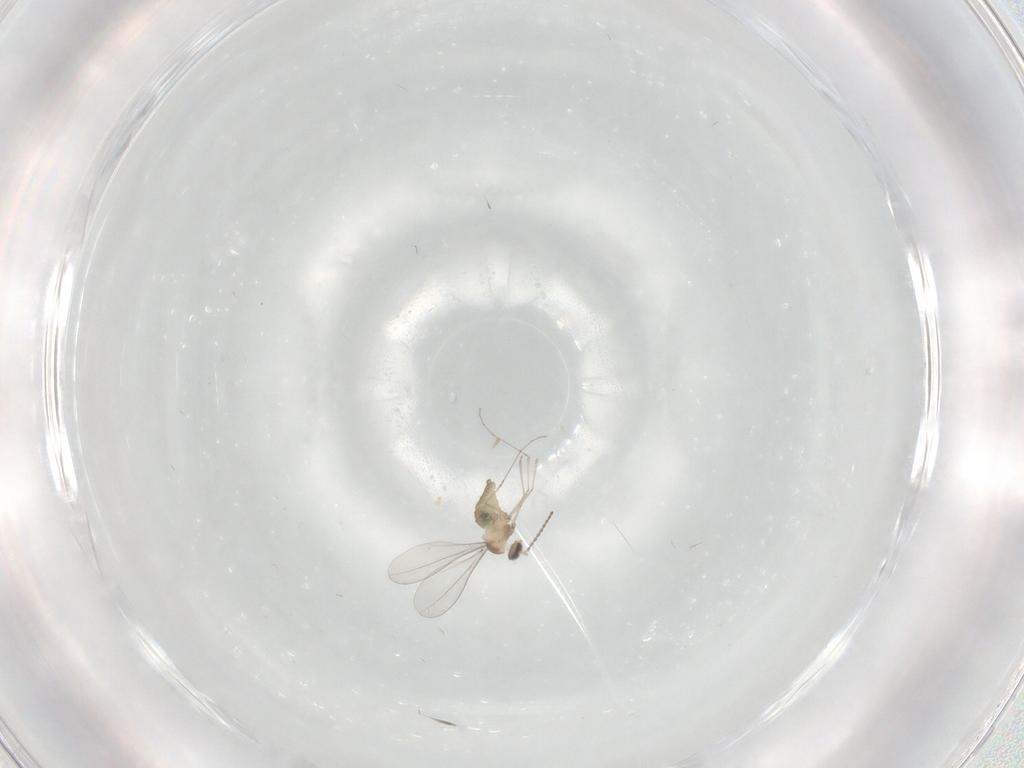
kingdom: Animalia
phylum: Arthropoda
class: Insecta
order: Diptera
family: Cecidomyiidae
